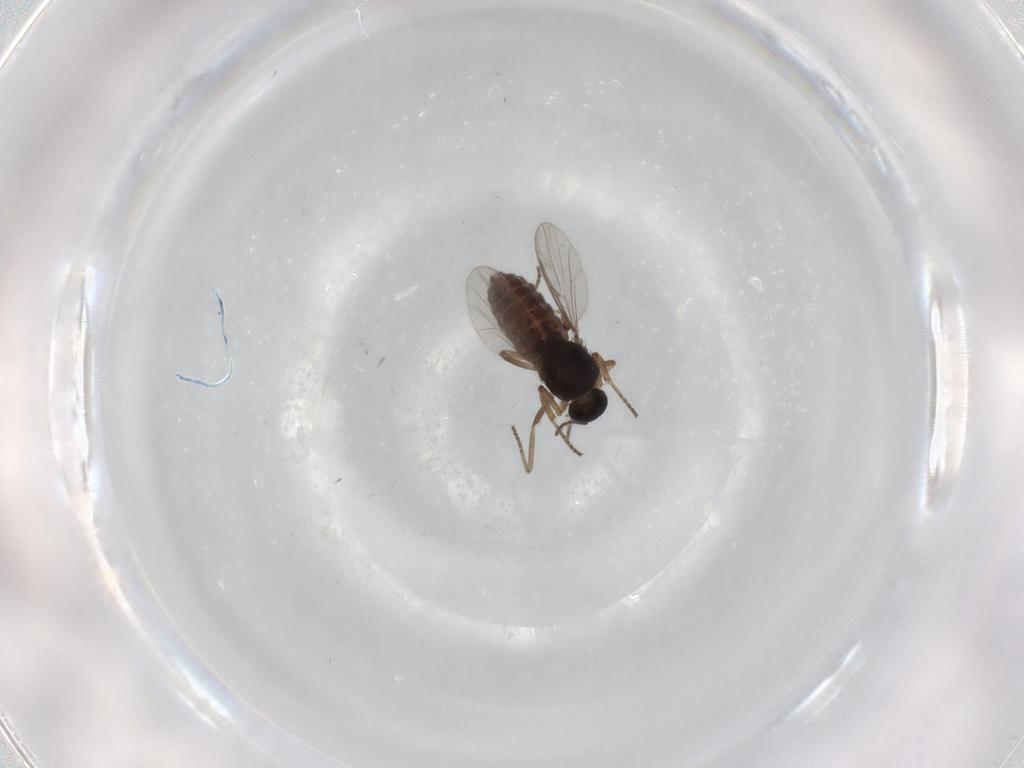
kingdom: Animalia
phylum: Arthropoda
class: Insecta
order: Diptera
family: Ceratopogonidae
